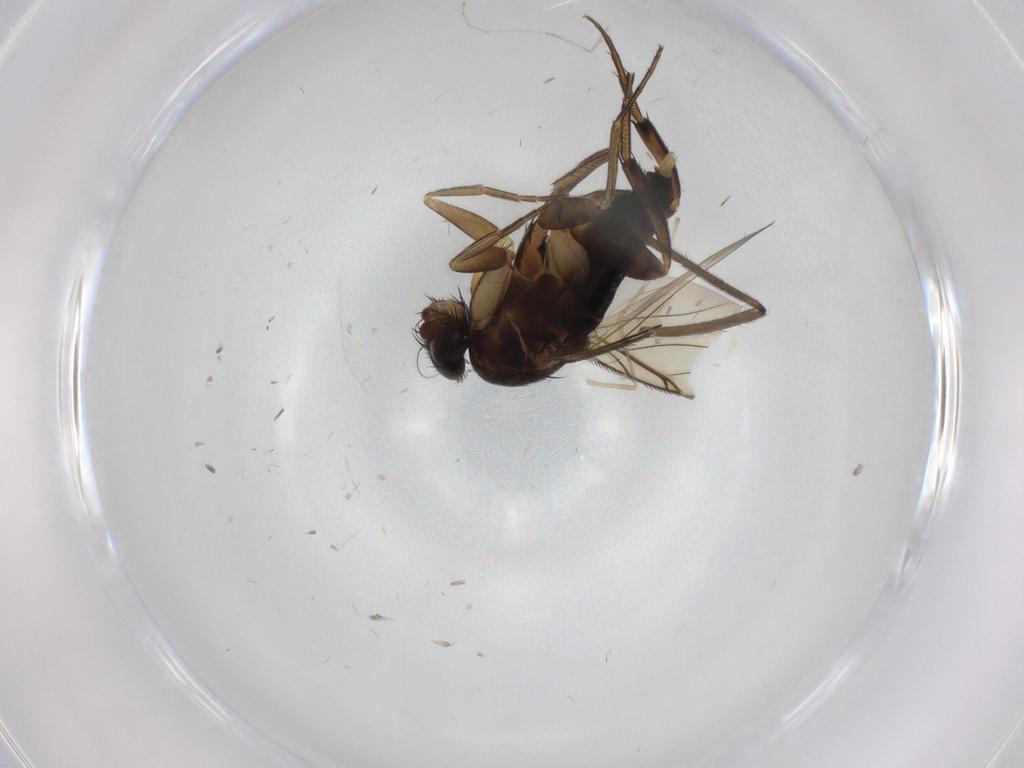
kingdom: Animalia
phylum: Arthropoda
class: Insecta
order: Diptera
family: Phoridae
